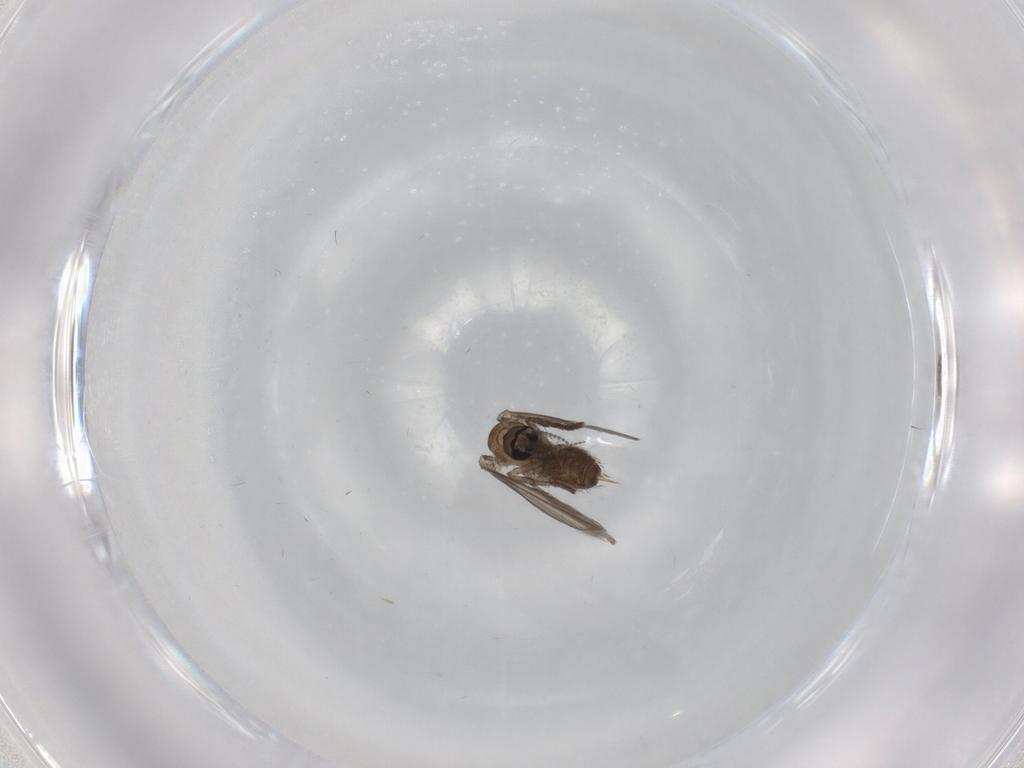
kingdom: Animalia
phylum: Arthropoda
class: Insecta
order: Diptera
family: Psychodidae
